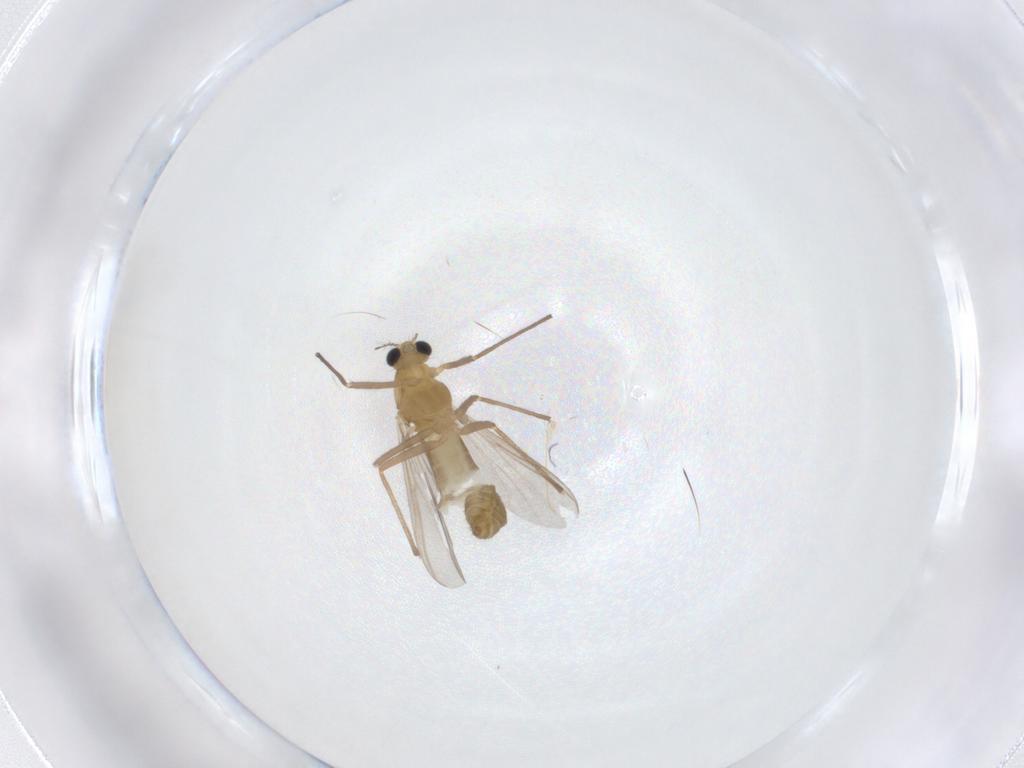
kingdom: Animalia
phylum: Arthropoda
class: Insecta
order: Diptera
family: Chironomidae
